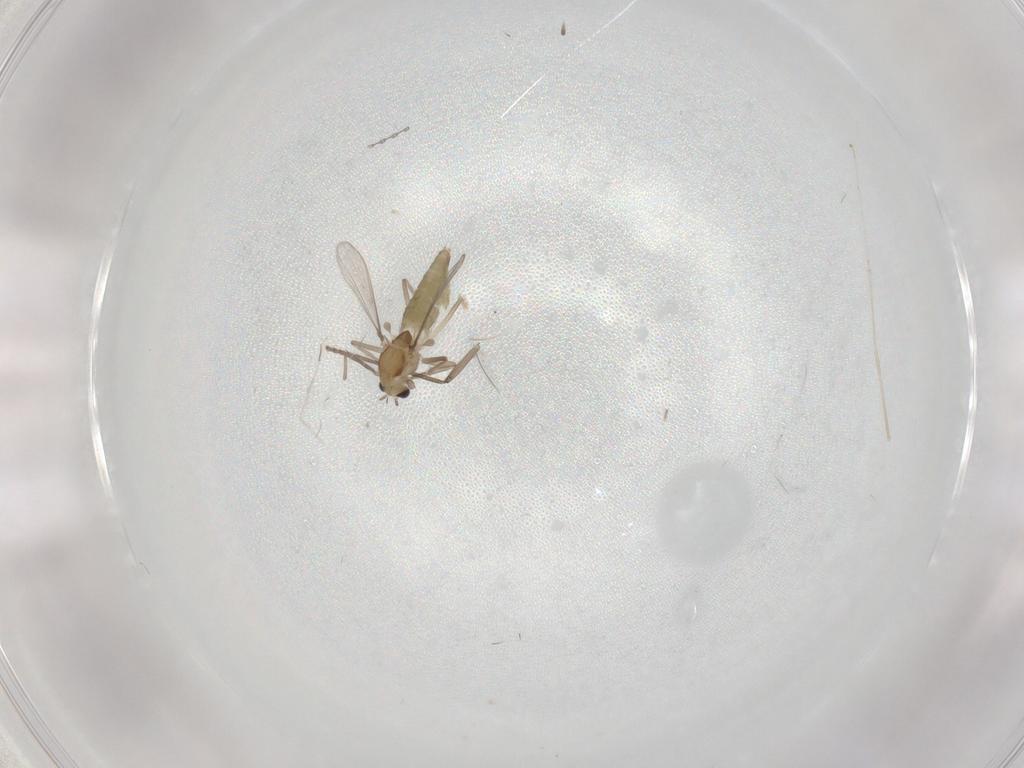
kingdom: Animalia
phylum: Arthropoda
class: Insecta
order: Diptera
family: Chironomidae
